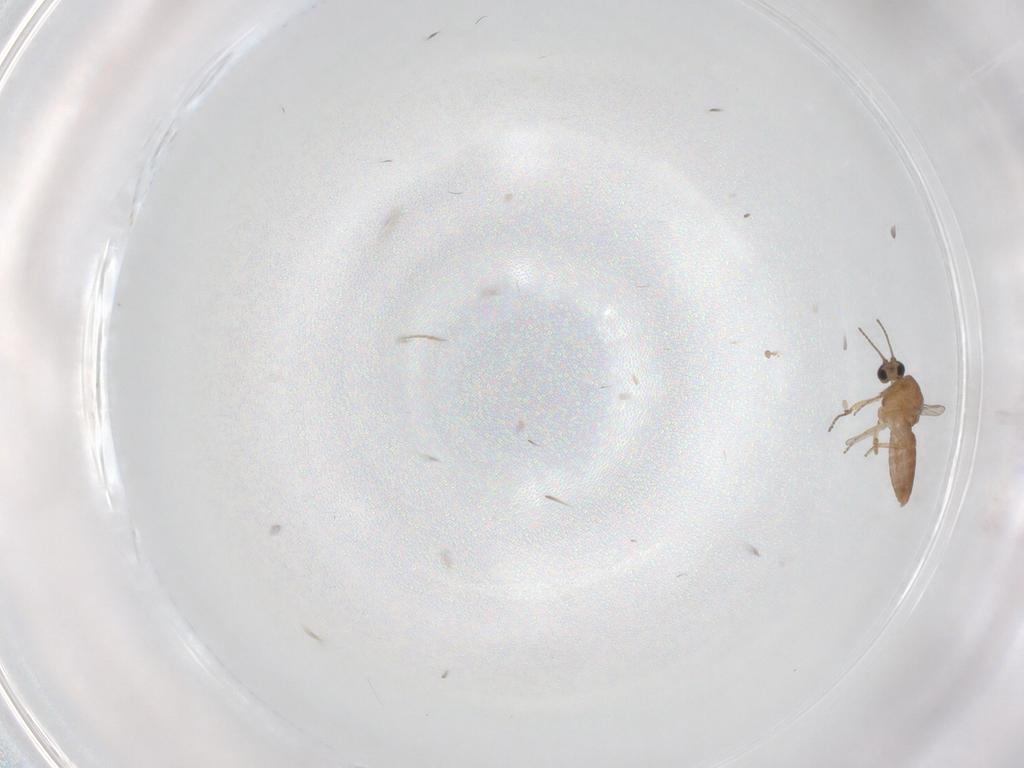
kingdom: Animalia
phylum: Arthropoda
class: Insecta
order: Diptera
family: Ceratopogonidae
